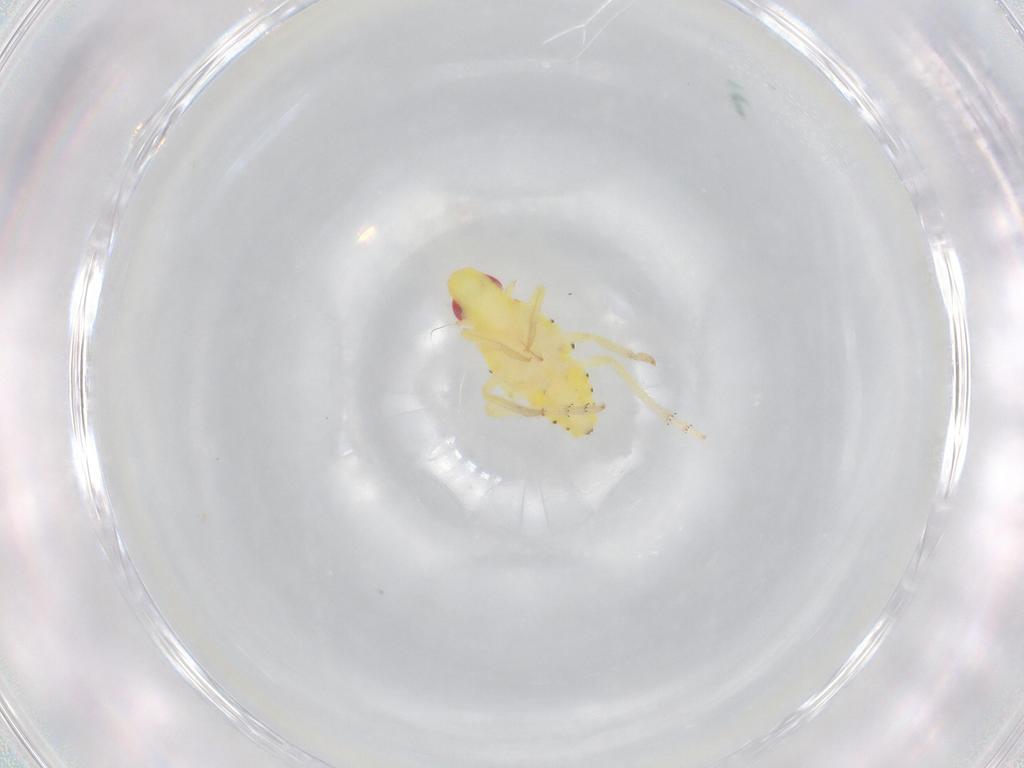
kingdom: Animalia
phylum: Arthropoda
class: Insecta
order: Hemiptera
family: Tropiduchidae
